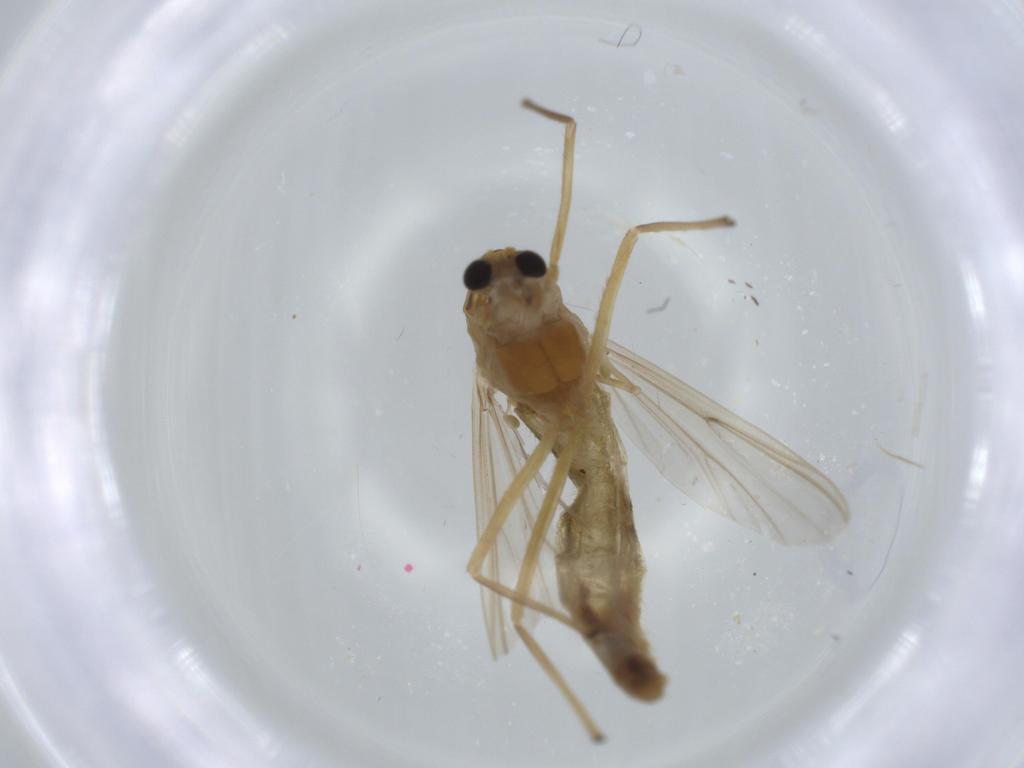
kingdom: Animalia
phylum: Arthropoda
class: Insecta
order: Diptera
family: Chironomidae
